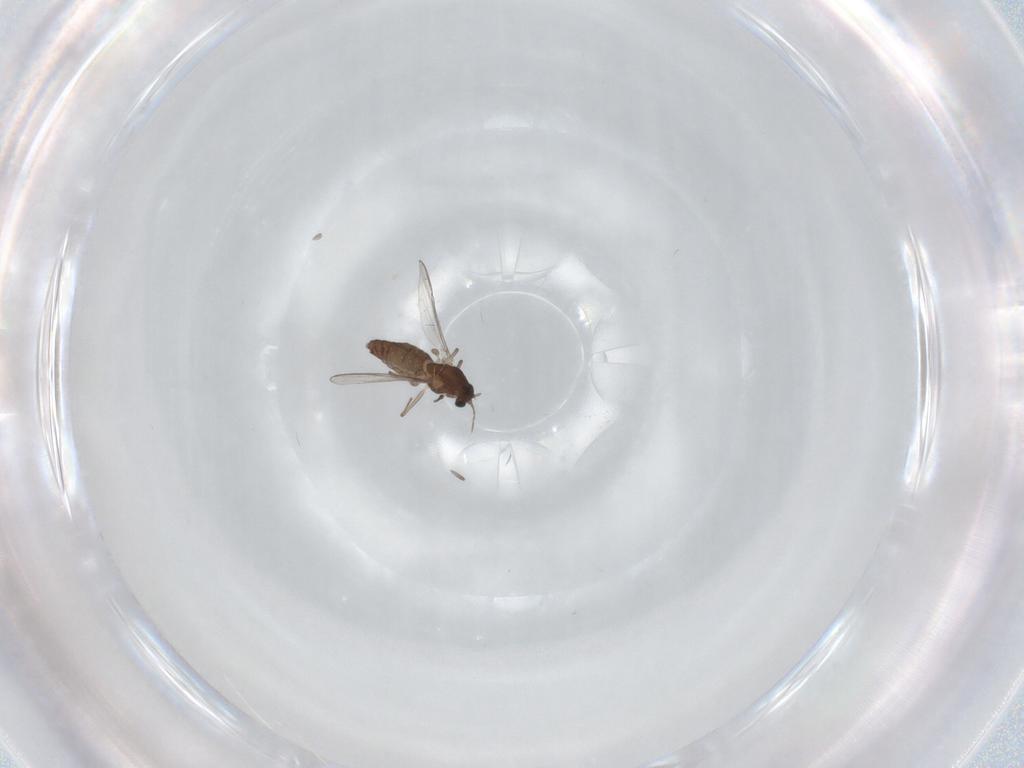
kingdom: Animalia
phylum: Arthropoda
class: Insecta
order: Diptera
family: Chironomidae
